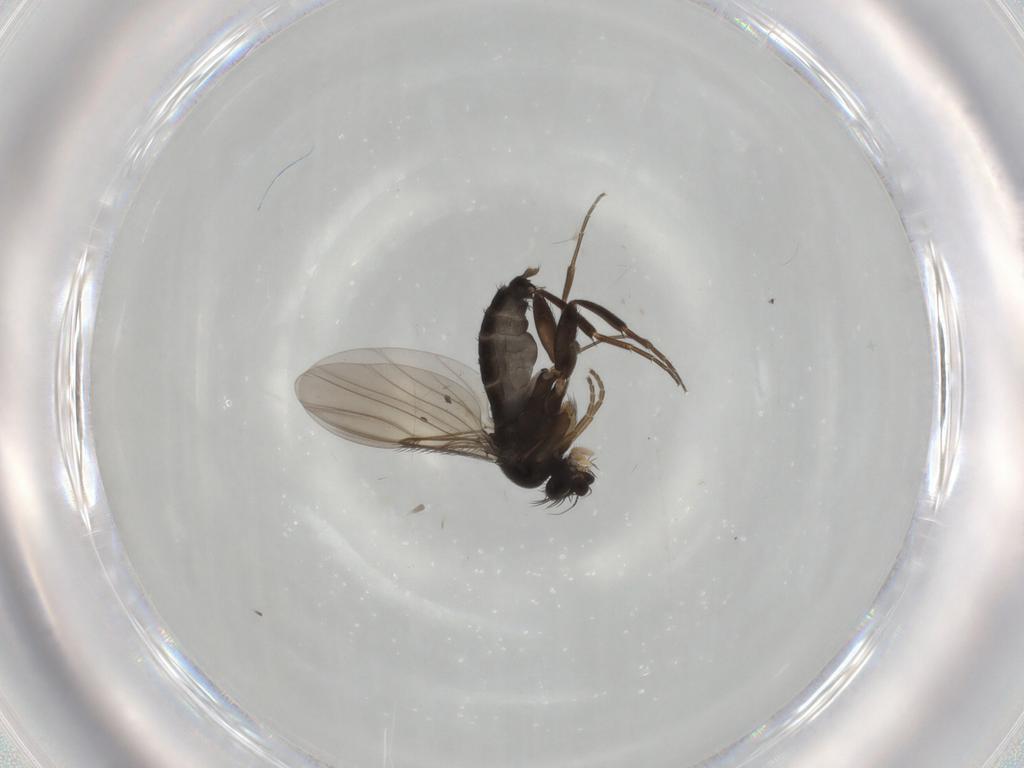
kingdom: Animalia
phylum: Arthropoda
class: Insecta
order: Diptera
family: Phoridae
